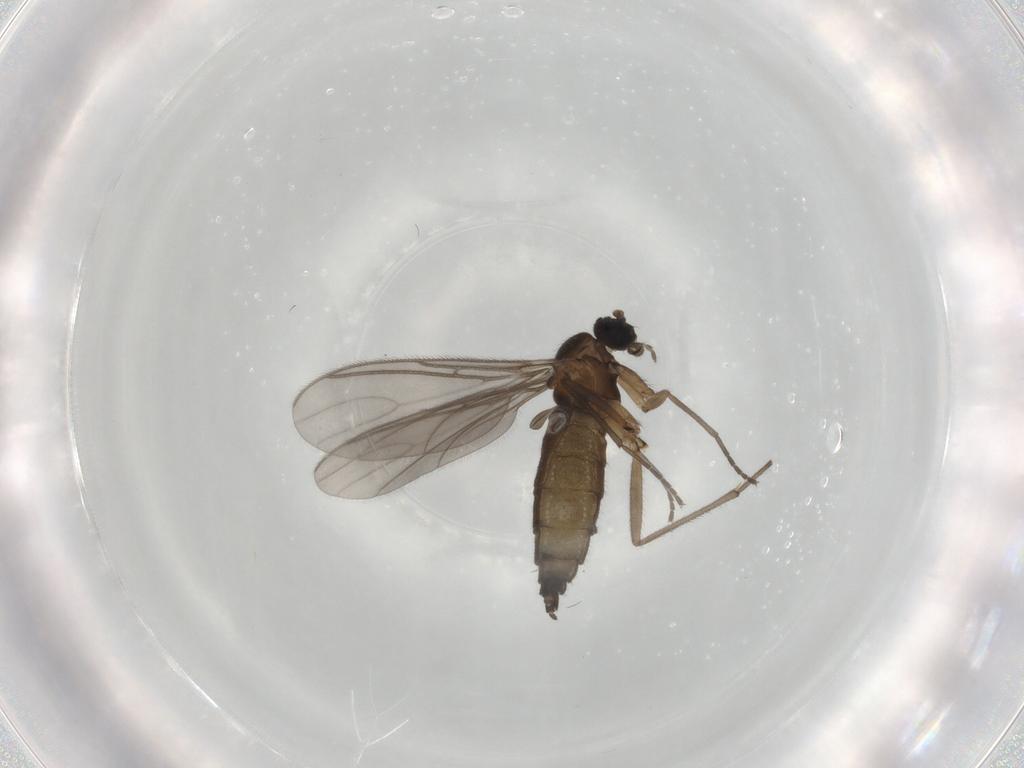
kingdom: Animalia
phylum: Arthropoda
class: Insecta
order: Diptera
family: Sciaridae
